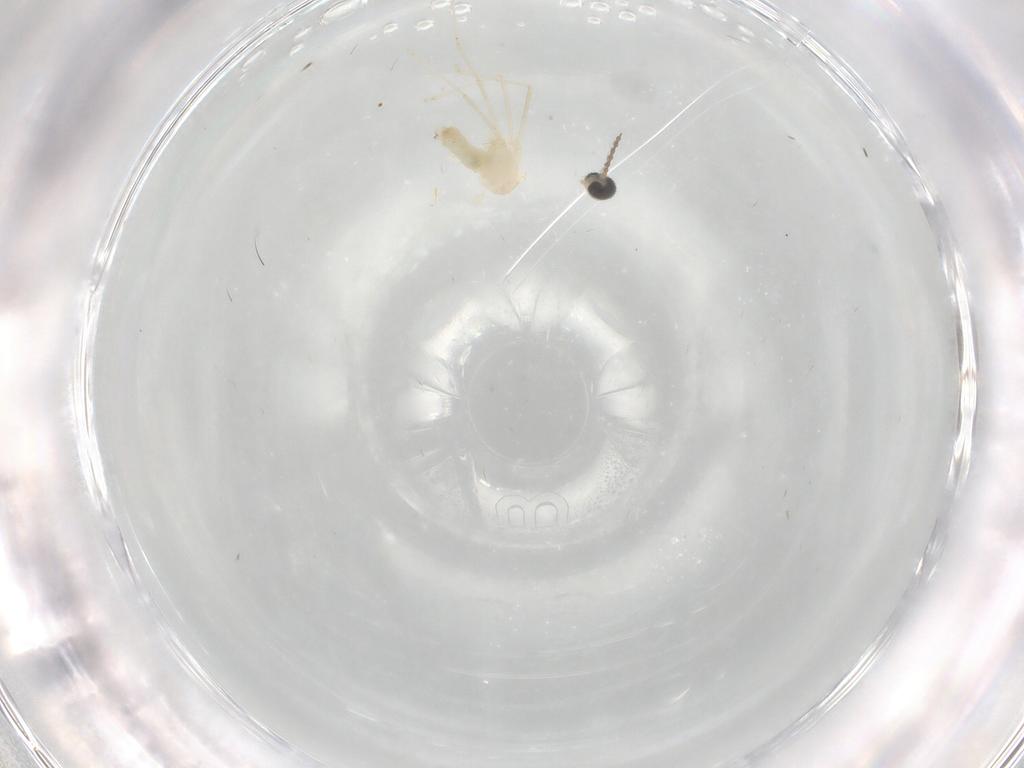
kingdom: Animalia
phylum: Arthropoda
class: Insecta
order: Diptera
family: Cecidomyiidae
